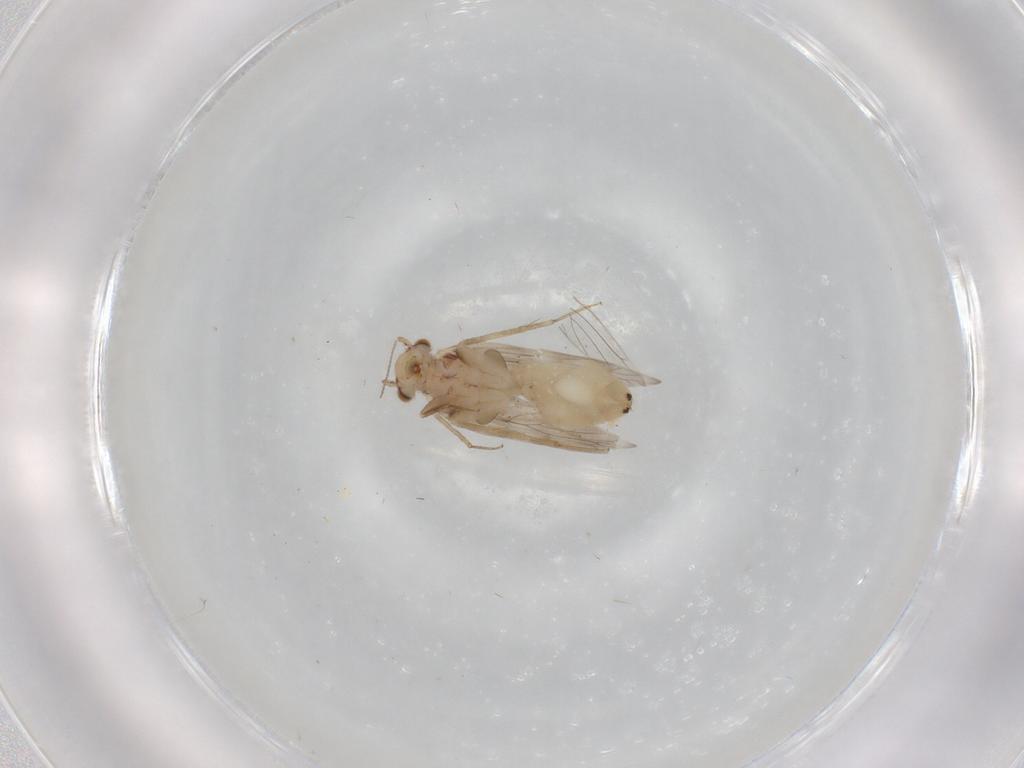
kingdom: Animalia
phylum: Arthropoda
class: Insecta
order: Psocodea
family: Lepidopsocidae
